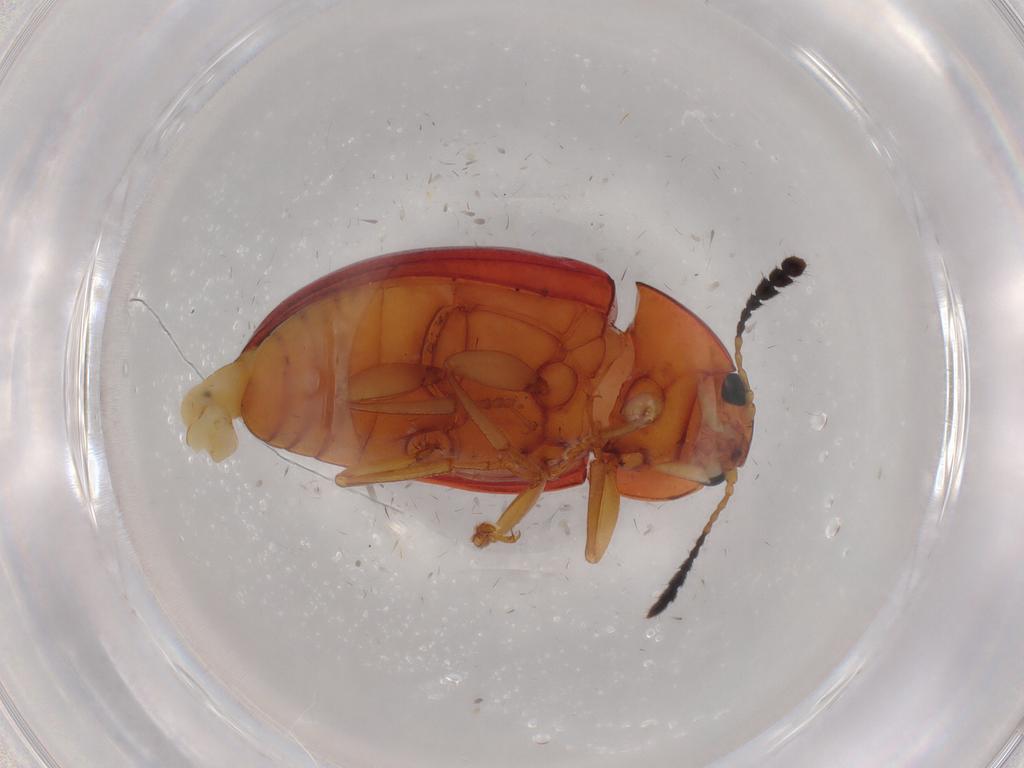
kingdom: Animalia
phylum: Arthropoda
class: Insecta
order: Coleoptera
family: Erotylidae
